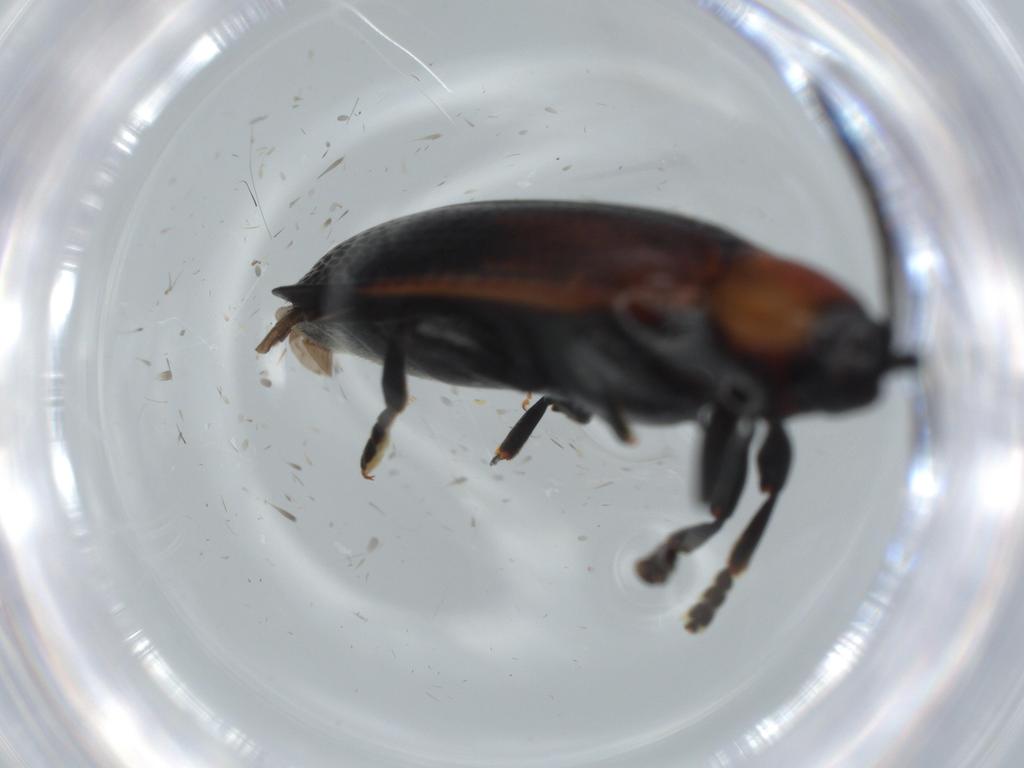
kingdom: Animalia
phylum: Arthropoda
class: Insecta
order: Coleoptera
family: Chrysomelidae
